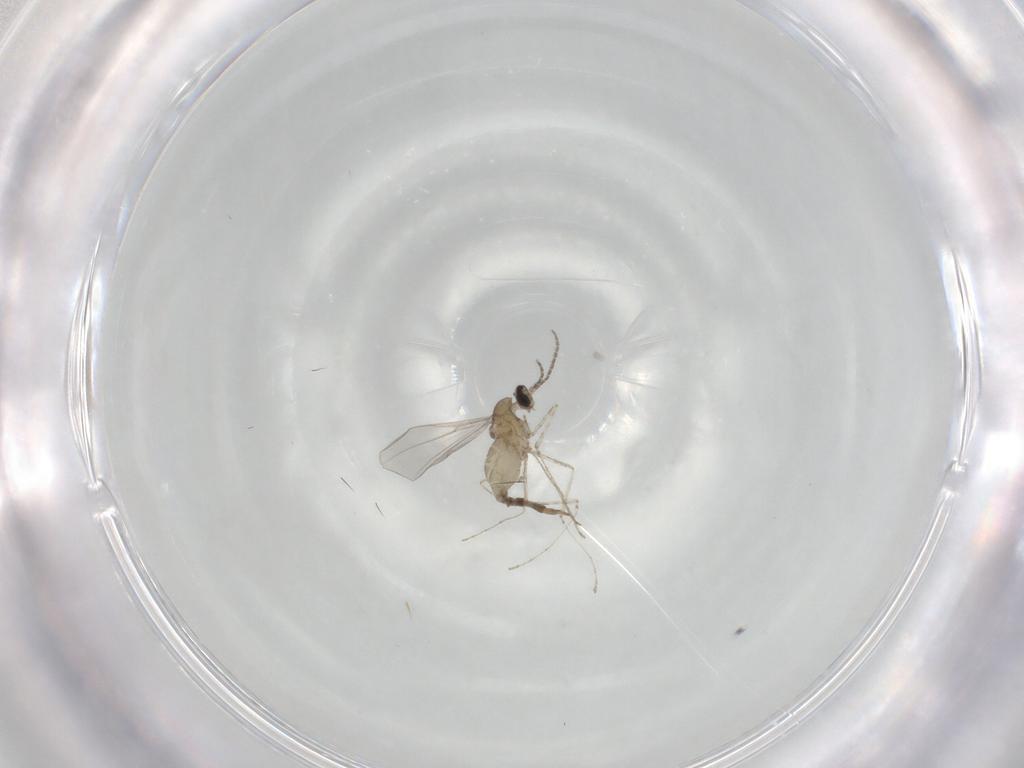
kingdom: Animalia
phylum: Arthropoda
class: Insecta
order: Diptera
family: Cecidomyiidae
